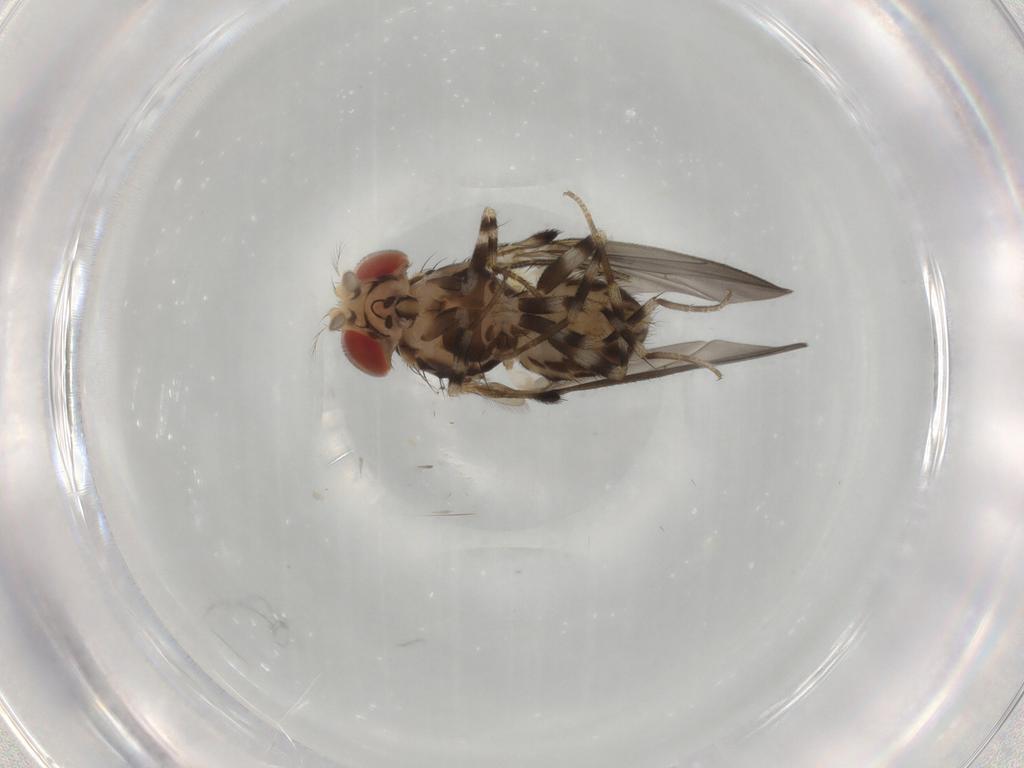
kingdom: Animalia
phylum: Arthropoda
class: Insecta
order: Diptera
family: Drosophilidae
